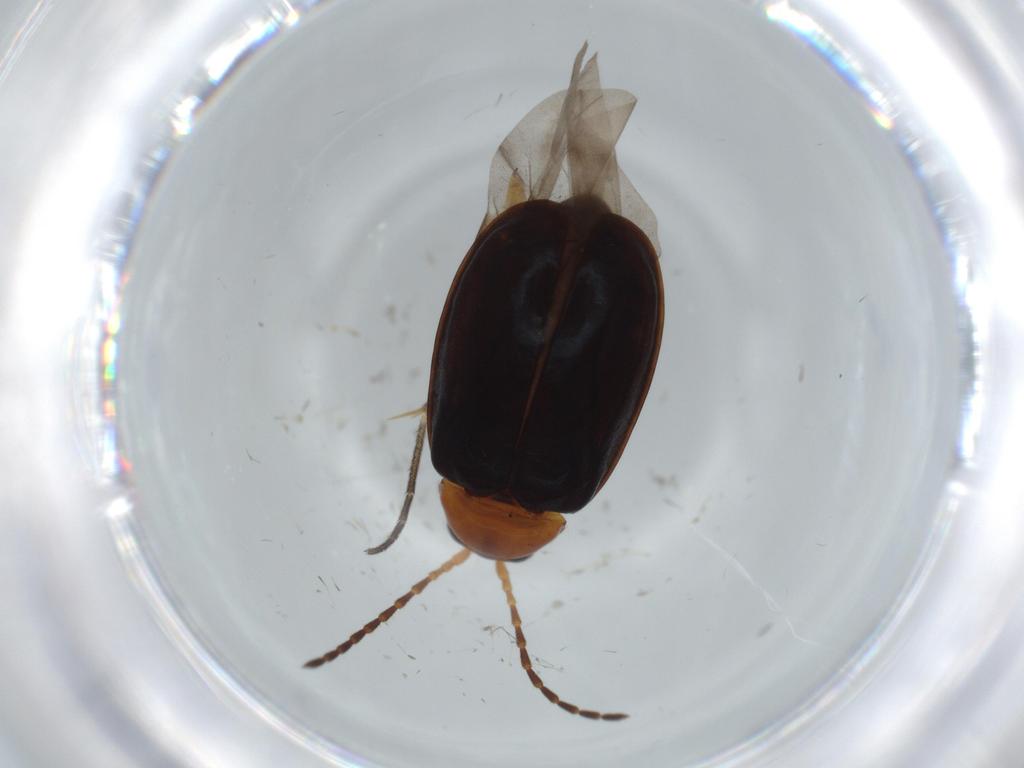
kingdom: Animalia
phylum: Arthropoda
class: Insecta
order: Coleoptera
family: Chrysomelidae
